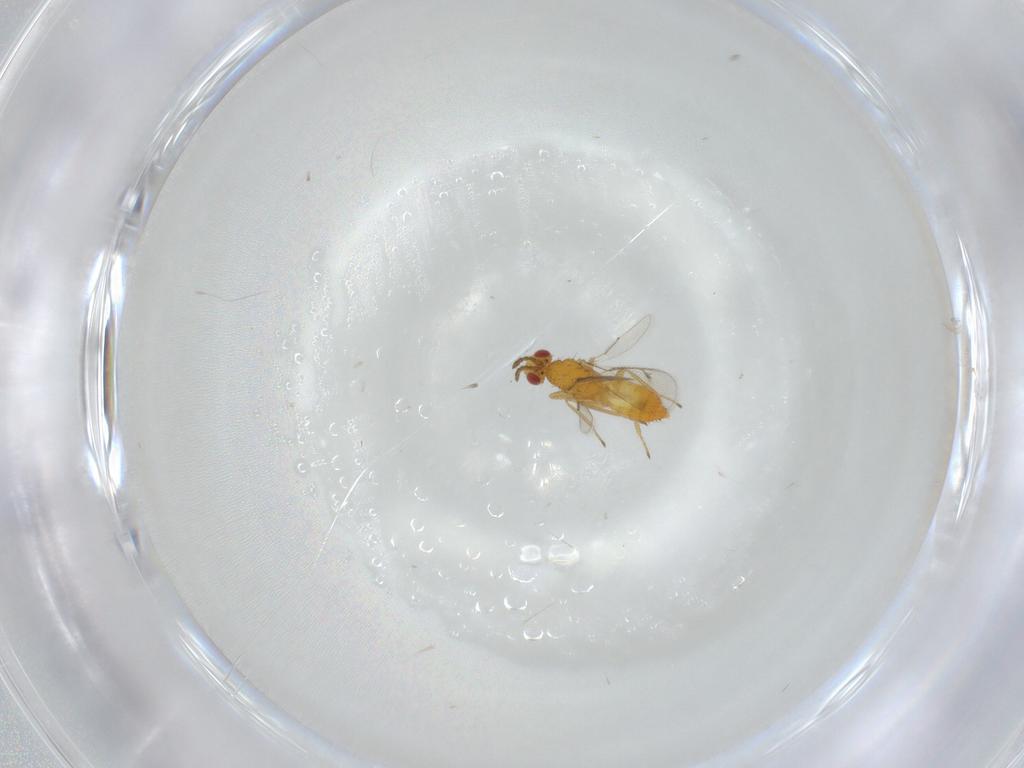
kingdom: Animalia
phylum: Arthropoda
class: Insecta
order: Hymenoptera
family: Eulophidae
